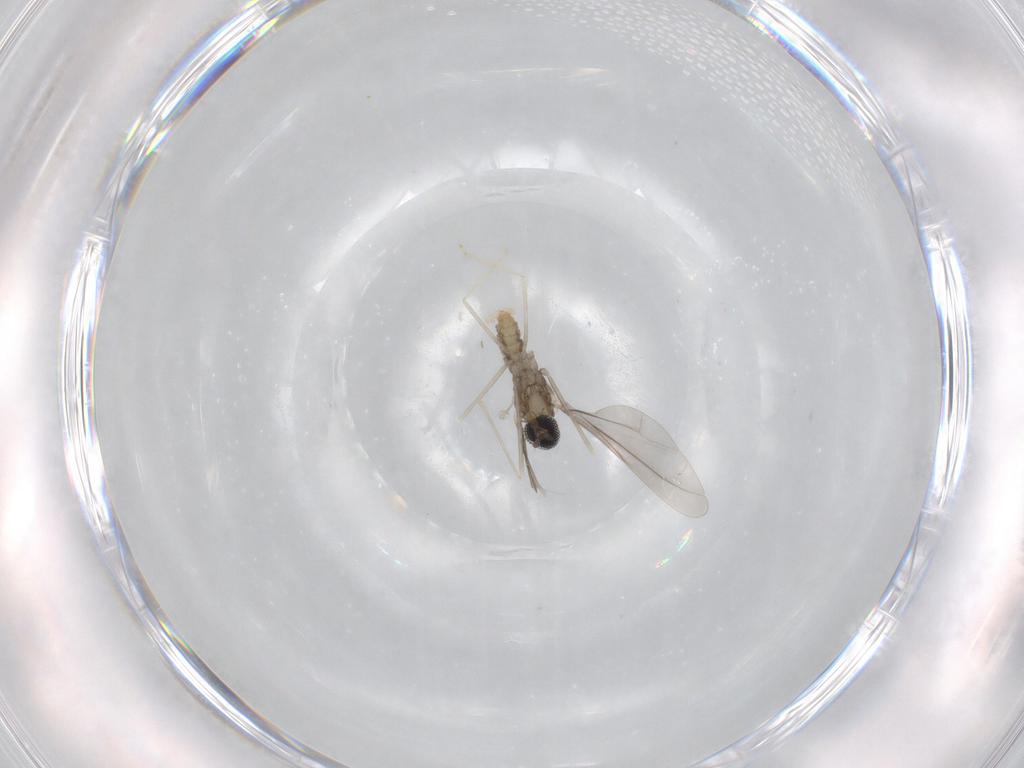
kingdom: Animalia
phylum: Arthropoda
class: Insecta
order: Diptera
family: Cecidomyiidae
